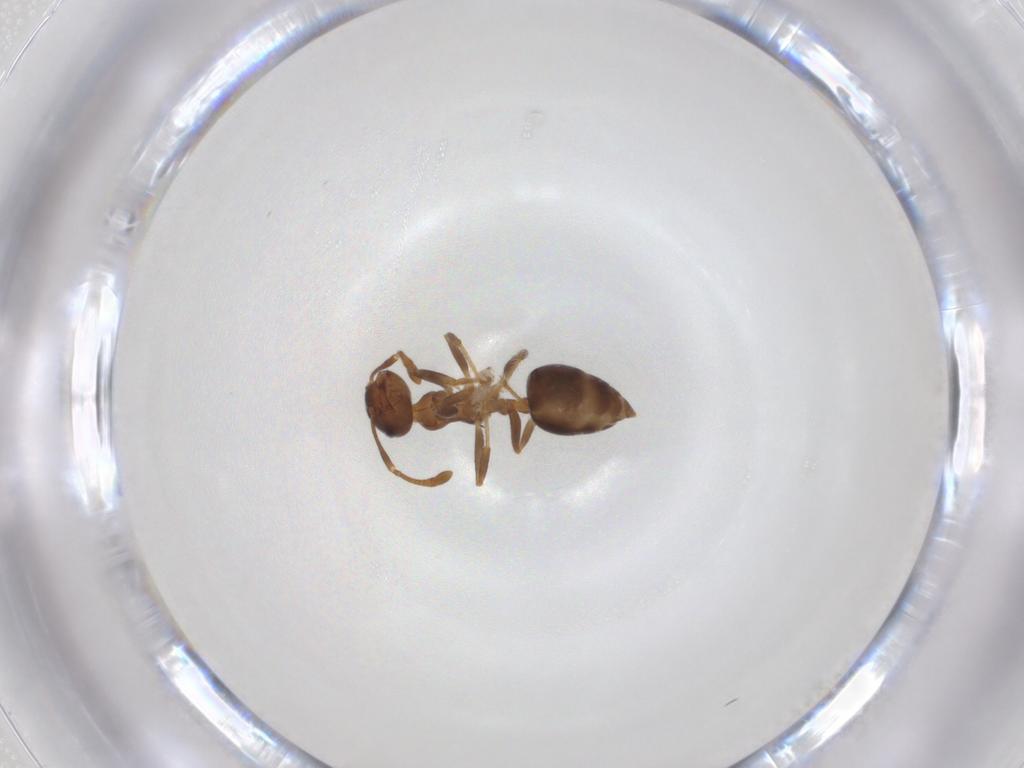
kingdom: Animalia
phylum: Arthropoda
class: Insecta
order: Hymenoptera
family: Formicidae
